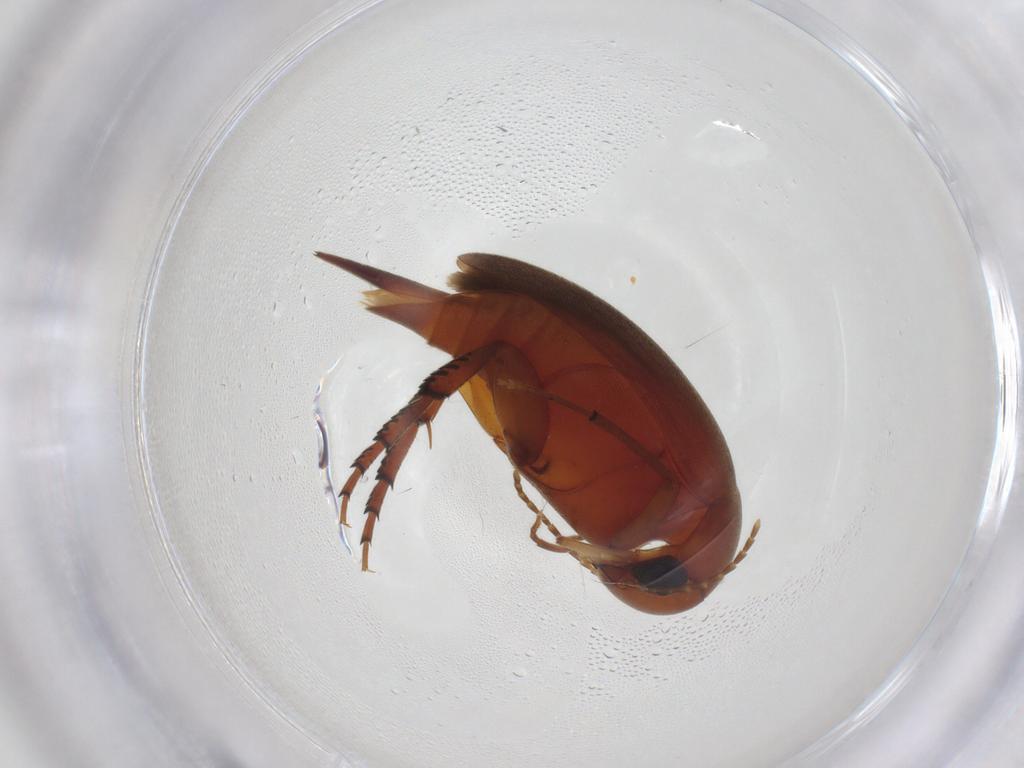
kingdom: Animalia
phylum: Arthropoda
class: Insecta
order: Coleoptera
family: Mordellidae
